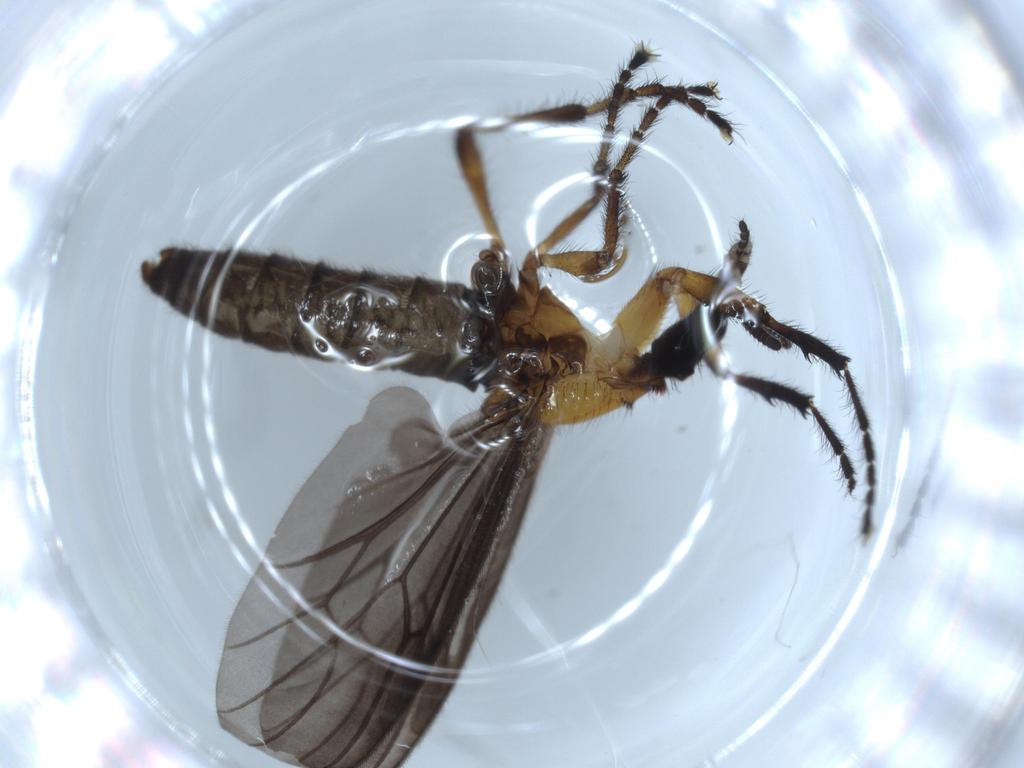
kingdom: Animalia
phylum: Arthropoda
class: Insecta
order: Diptera
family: Bibionidae
